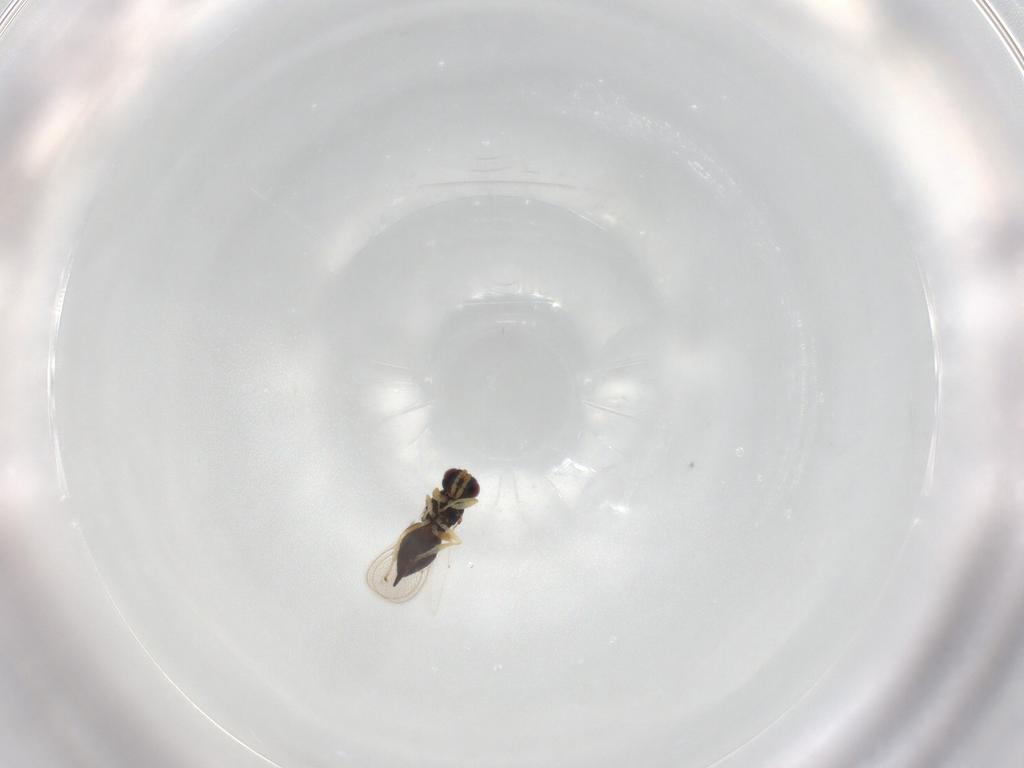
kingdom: Animalia
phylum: Arthropoda
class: Insecta
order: Hymenoptera
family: Eulophidae
